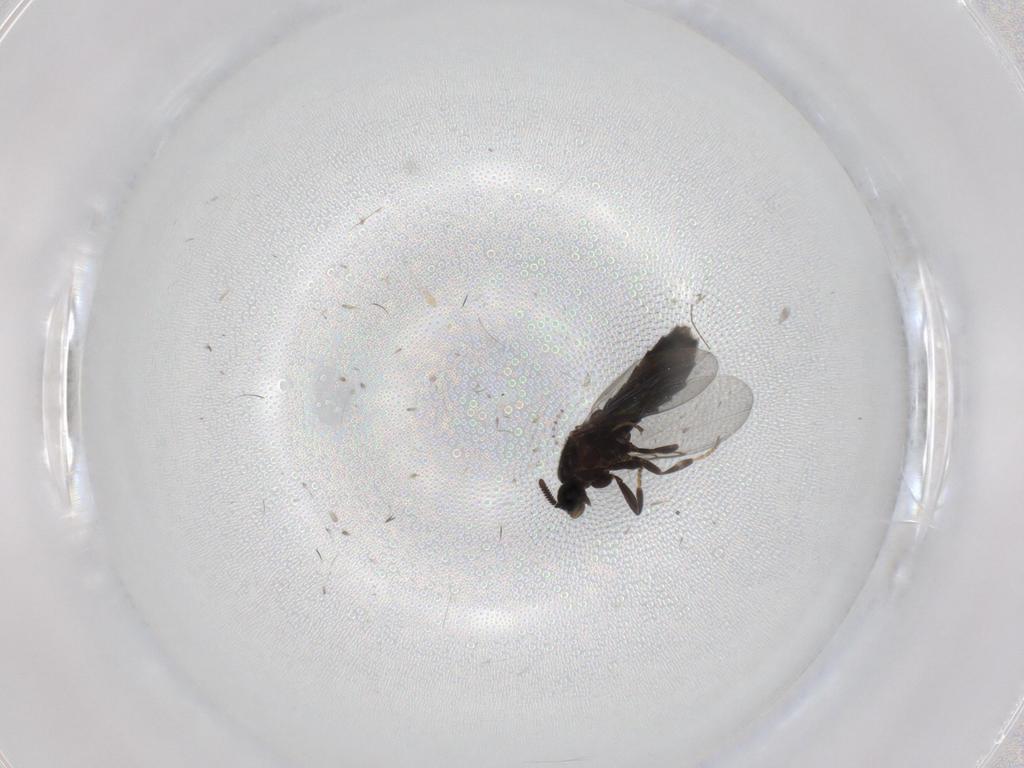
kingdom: Animalia
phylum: Arthropoda
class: Insecta
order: Diptera
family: Scatopsidae
